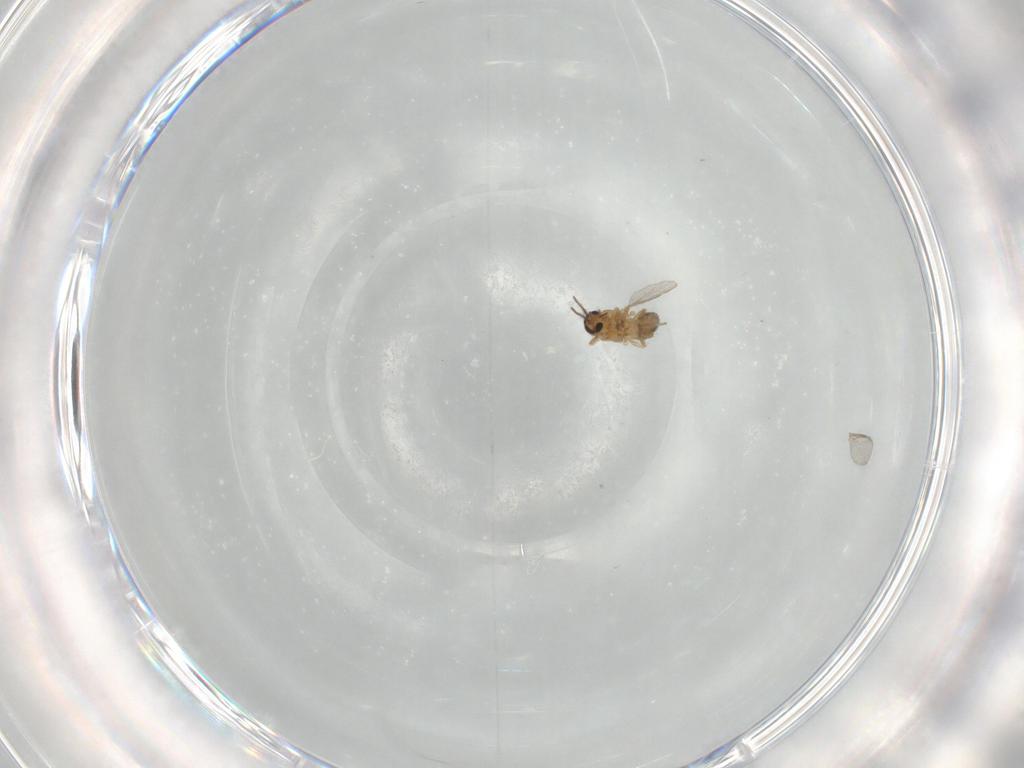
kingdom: Animalia
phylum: Arthropoda
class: Insecta
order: Diptera
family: Ceratopogonidae
